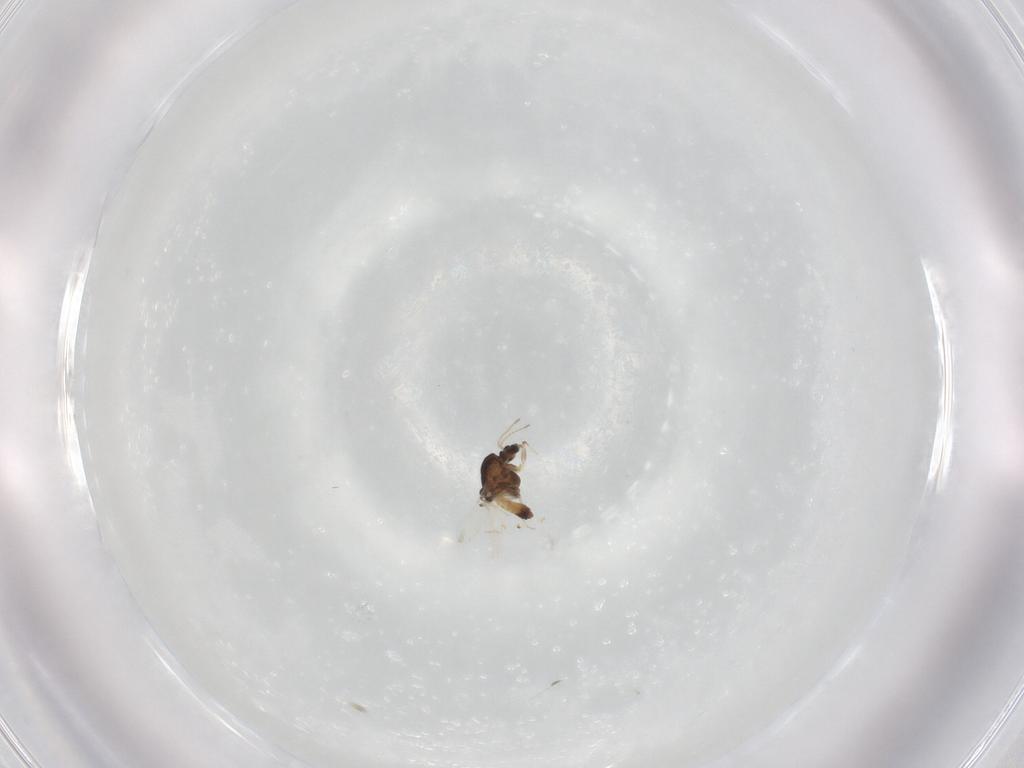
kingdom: Animalia
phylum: Arthropoda
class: Insecta
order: Diptera
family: Chironomidae
